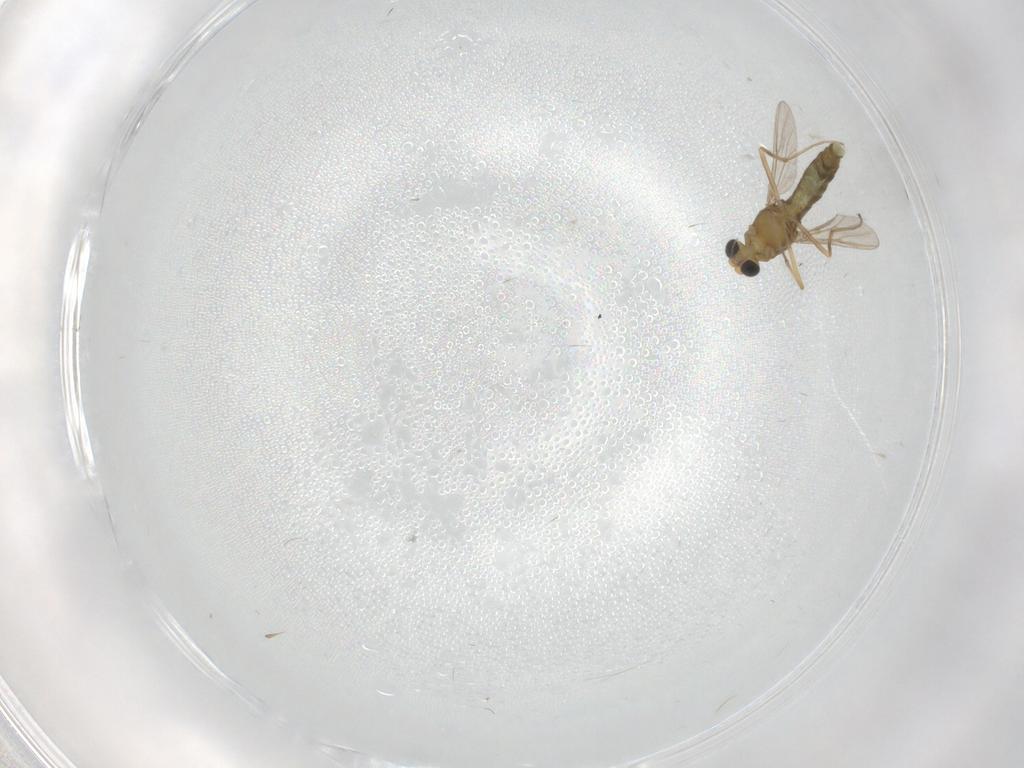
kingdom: Animalia
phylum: Arthropoda
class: Insecta
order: Diptera
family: Chironomidae
